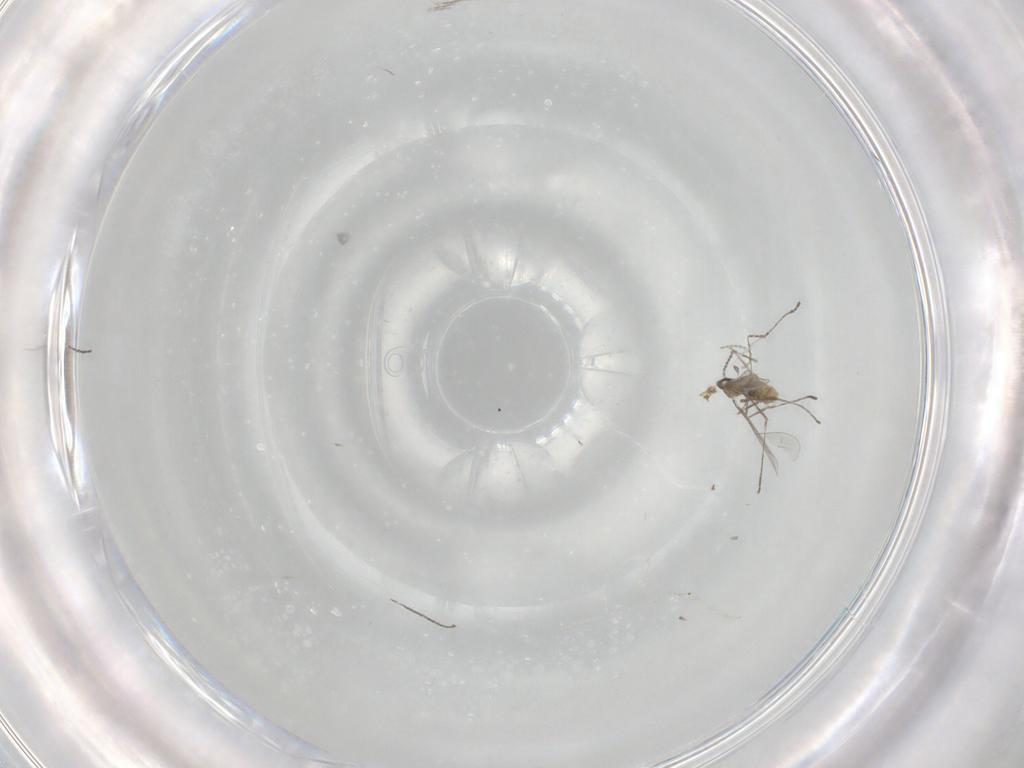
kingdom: Animalia
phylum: Arthropoda
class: Insecta
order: Diptera
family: Cecidomyiidae
